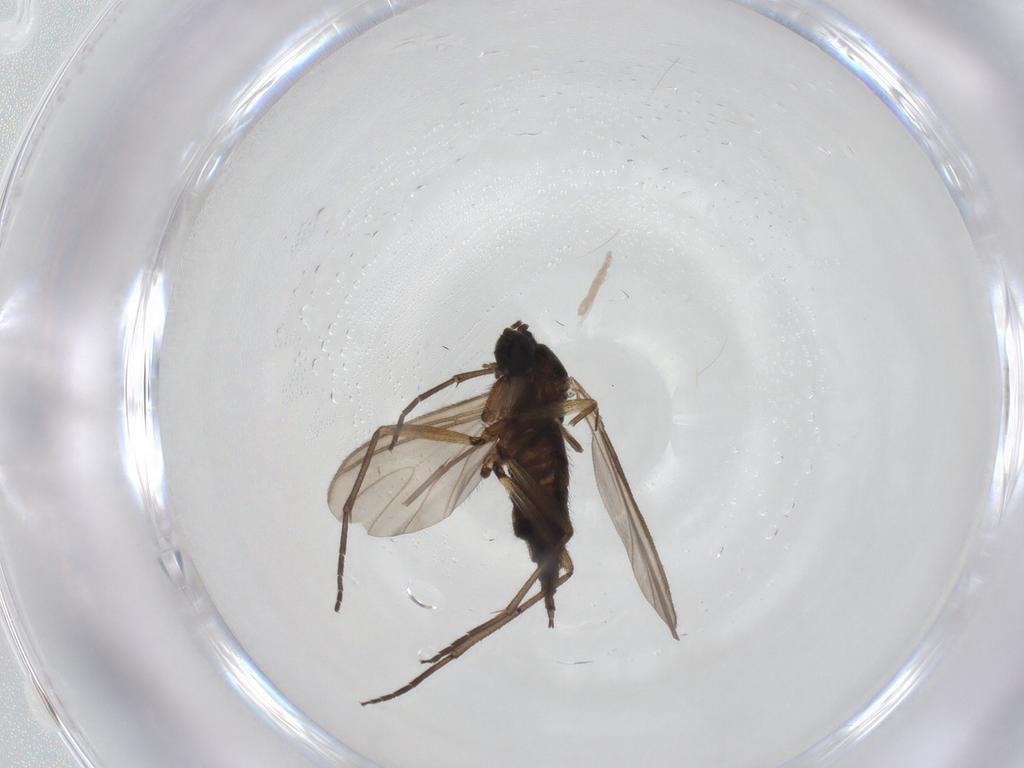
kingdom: Animalia
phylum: Arthropoda
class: Insecta
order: Diptera
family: Sciaridae
